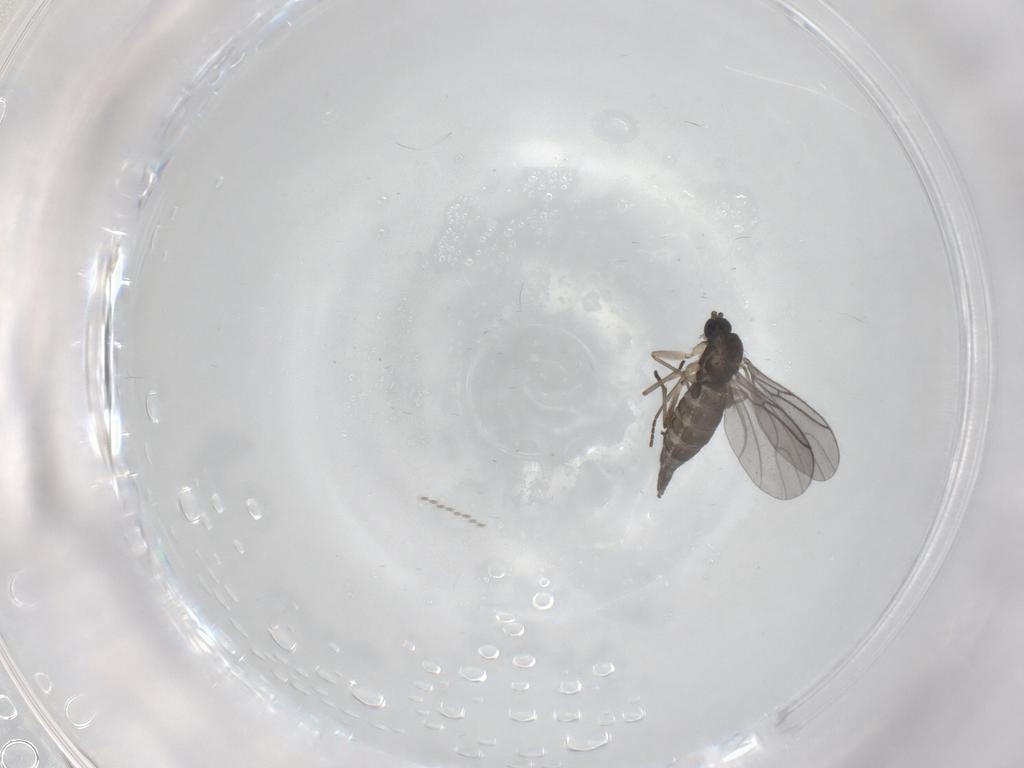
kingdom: Animalia
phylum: Arthropoda
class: Insecta
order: Diptera
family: Sciaridae
